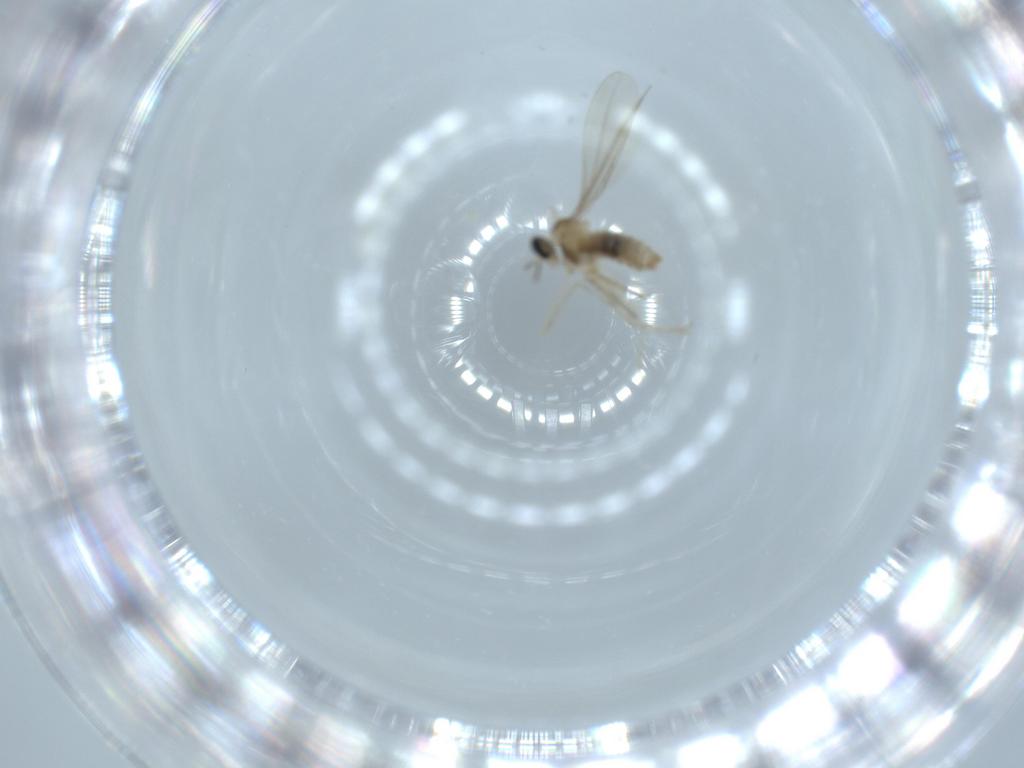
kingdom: Animalia
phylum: Arthropoda
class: Insecta
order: Diptera
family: Cecidomyiidae
